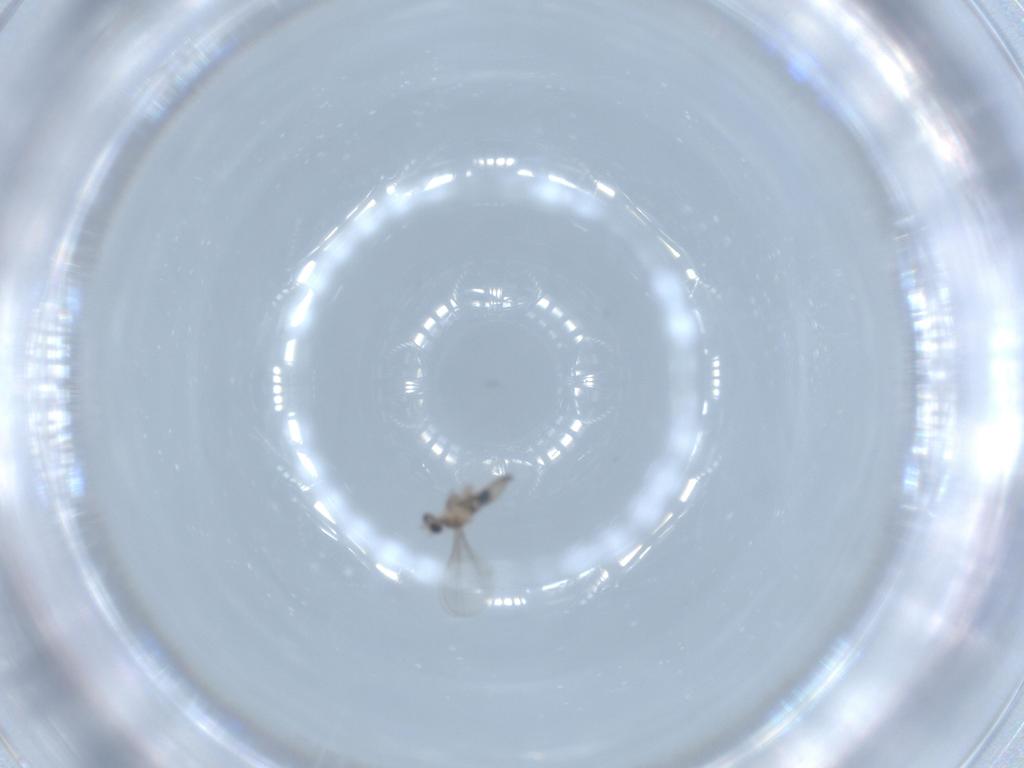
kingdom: Animalia
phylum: Arthropoda
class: Insecta
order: Diptera
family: Cecidomyiidae
